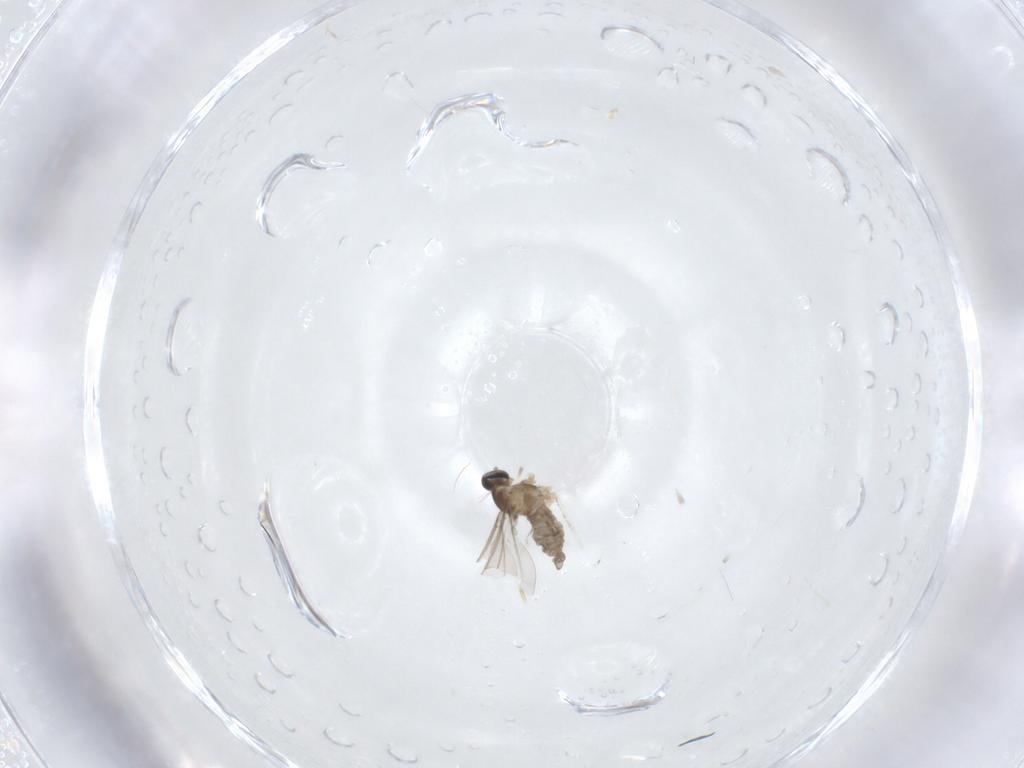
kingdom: Animalia
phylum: Arthropoda
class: Insecta
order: Diptera
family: Cecidomyiidae
